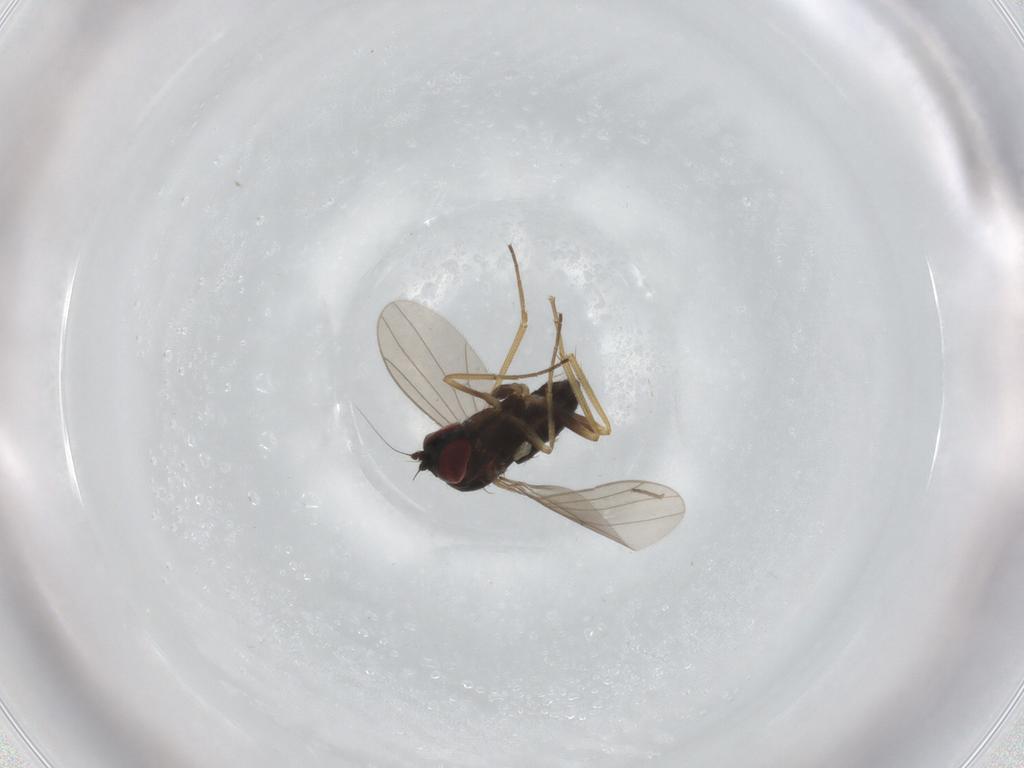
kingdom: Animalia
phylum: Arthropoda
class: Insecta
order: Diptera
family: Dolichopodidae
